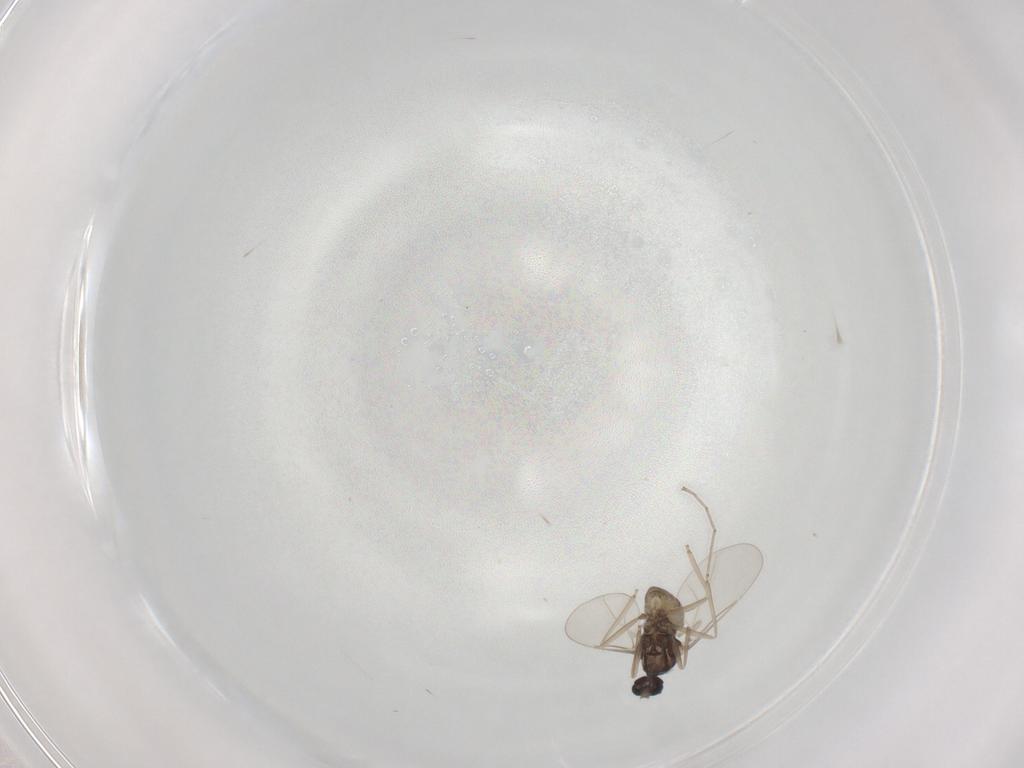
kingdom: Animalia
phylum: Arthropoda
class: Insecta
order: Diptera
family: Cecidomyiidae
